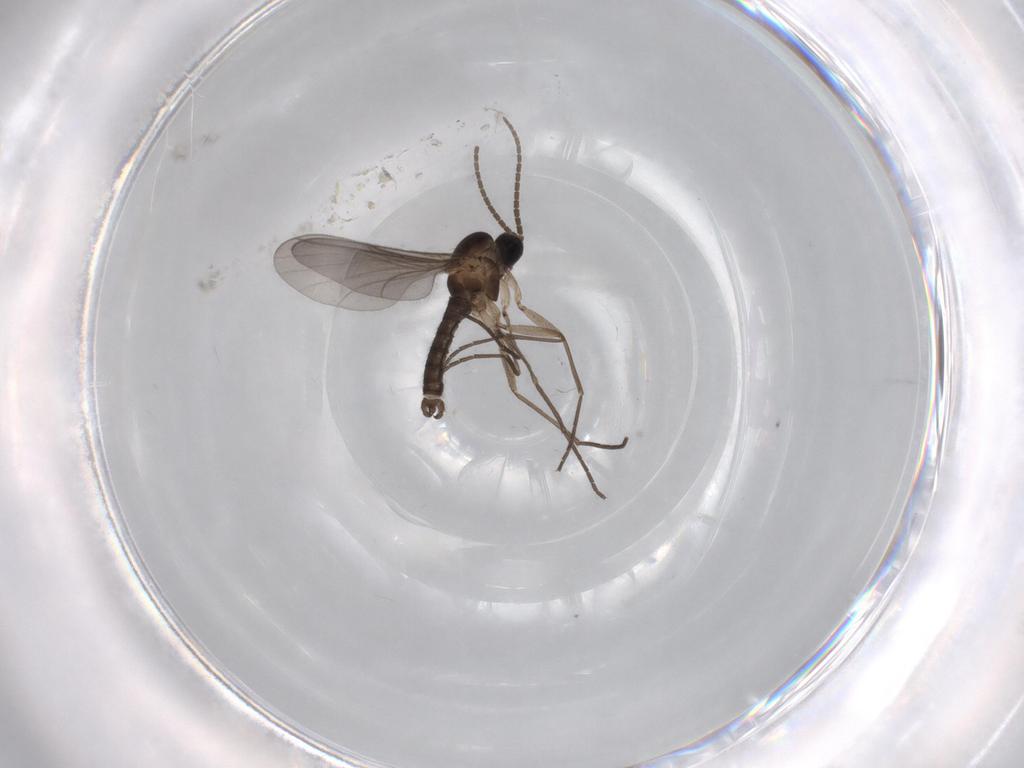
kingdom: Animalia
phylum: Arthropoda
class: Insecta
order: Diptera
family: Sciaridae
